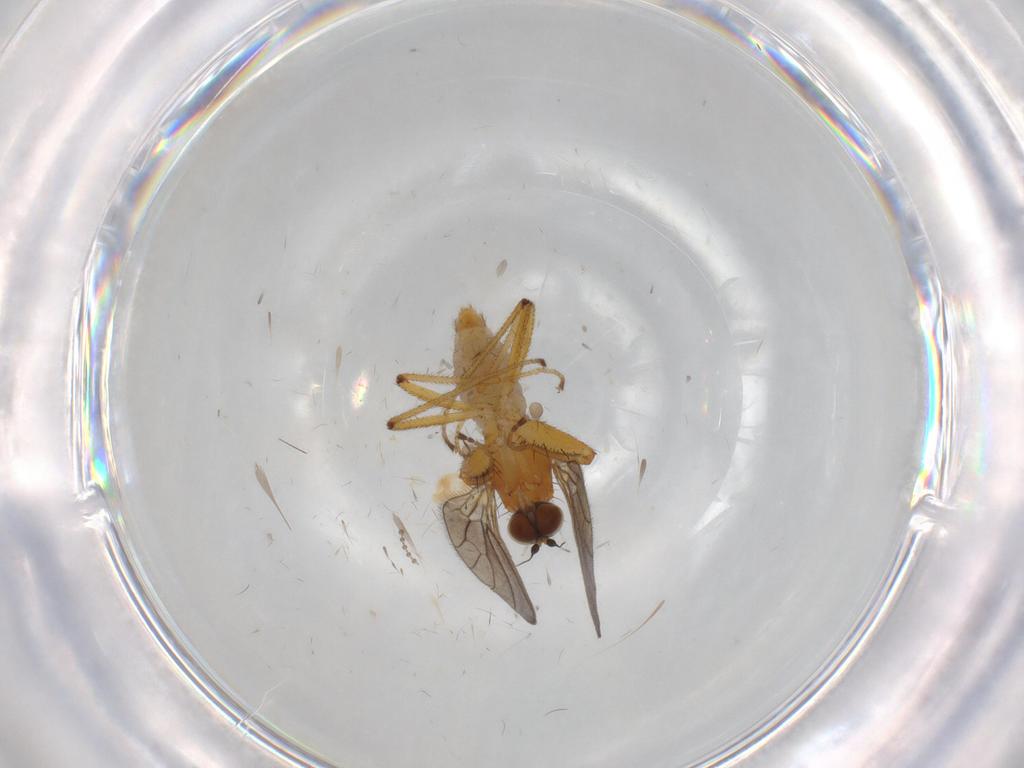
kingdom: Animalia
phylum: Arthropoda
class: Insecta
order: Diptera
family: Empididae
